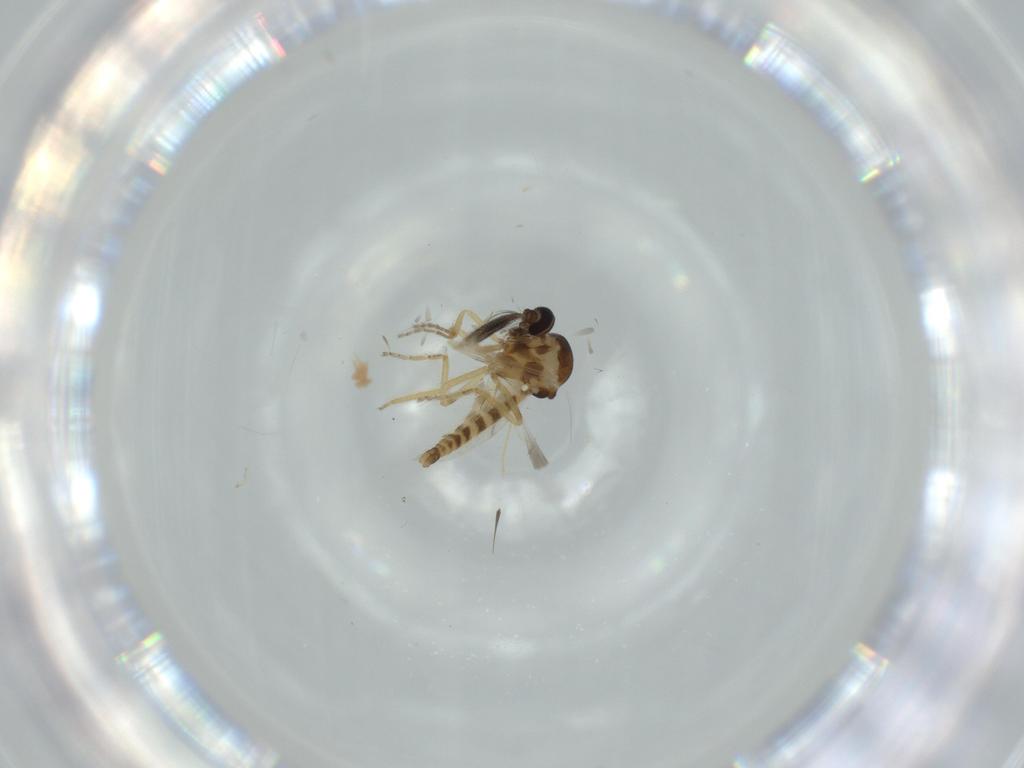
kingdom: Animalia
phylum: Arthropoda
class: Insecta
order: Diptera
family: Ceratopogonidae
